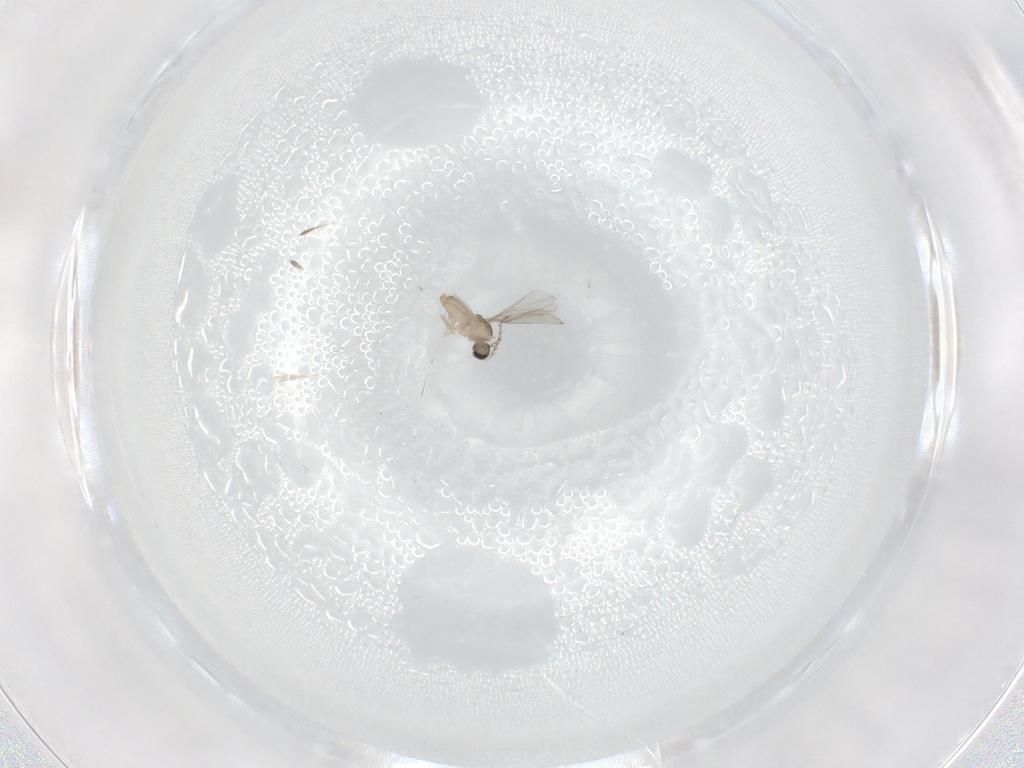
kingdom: Animalia
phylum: Arthropoda
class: Insecta
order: Diptera
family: Cecidomyiidae
